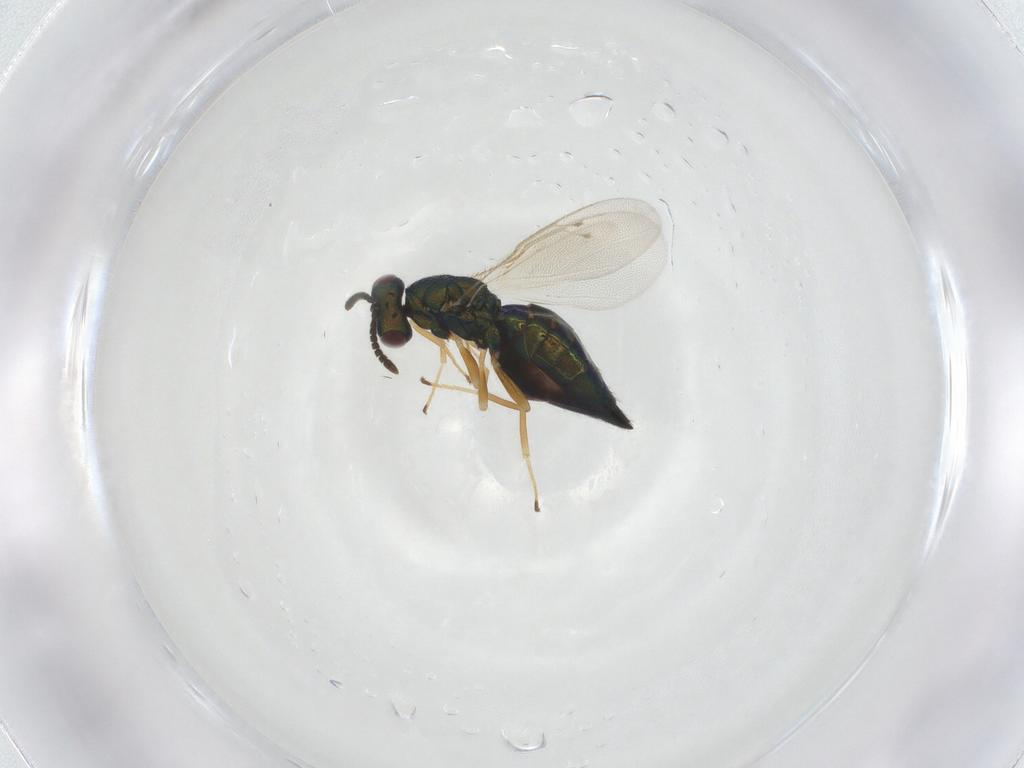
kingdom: Animalia
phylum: Arthropoda
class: Insecta
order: Hymenoptera
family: Pteromalidae
